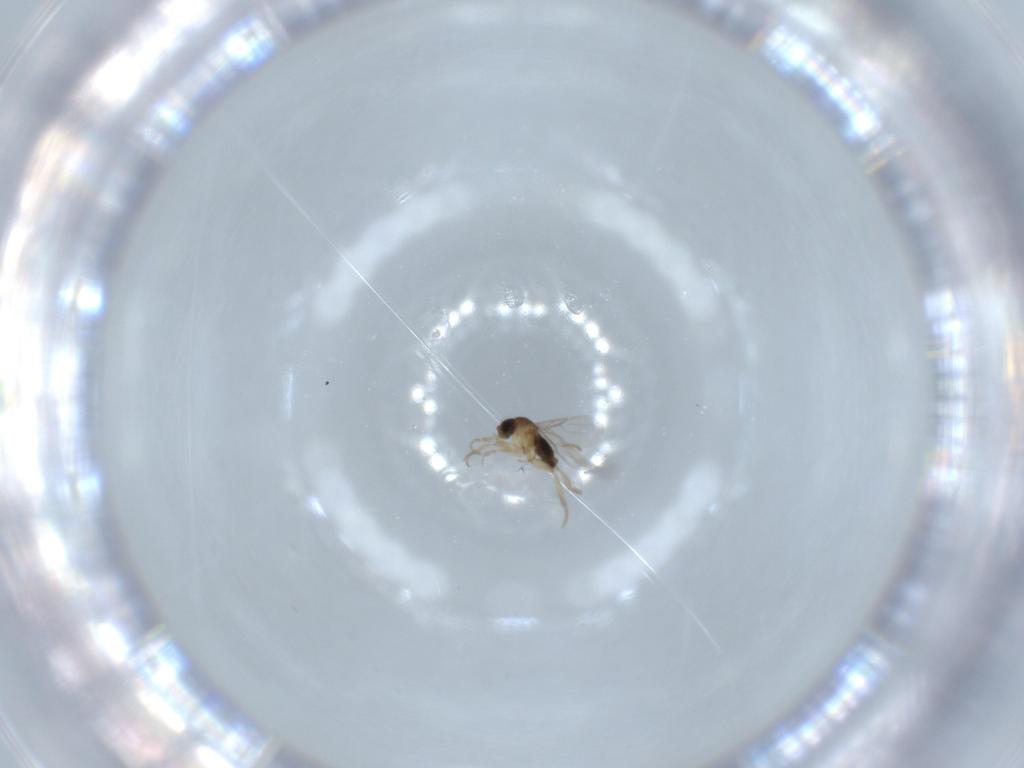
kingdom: Animalia
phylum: Arthropoda
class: Insecta
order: Diptera
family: Phoridae
